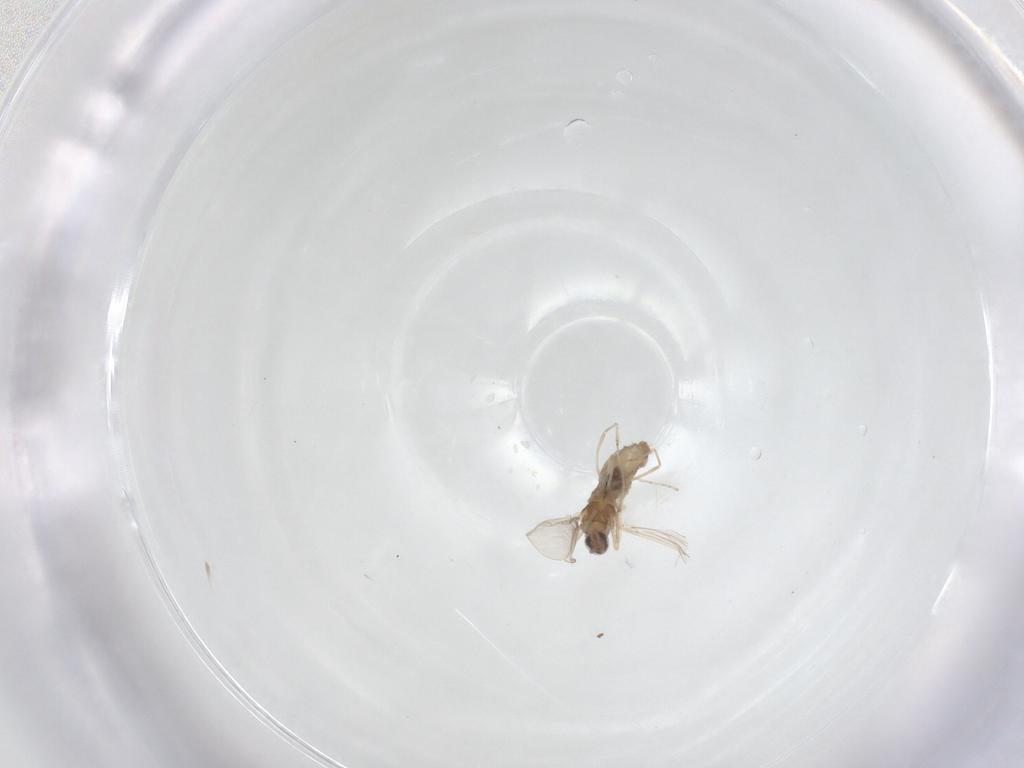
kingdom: Animalia
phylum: Arthropoda
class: Insecta
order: Diptera
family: Cecidomyiidae
